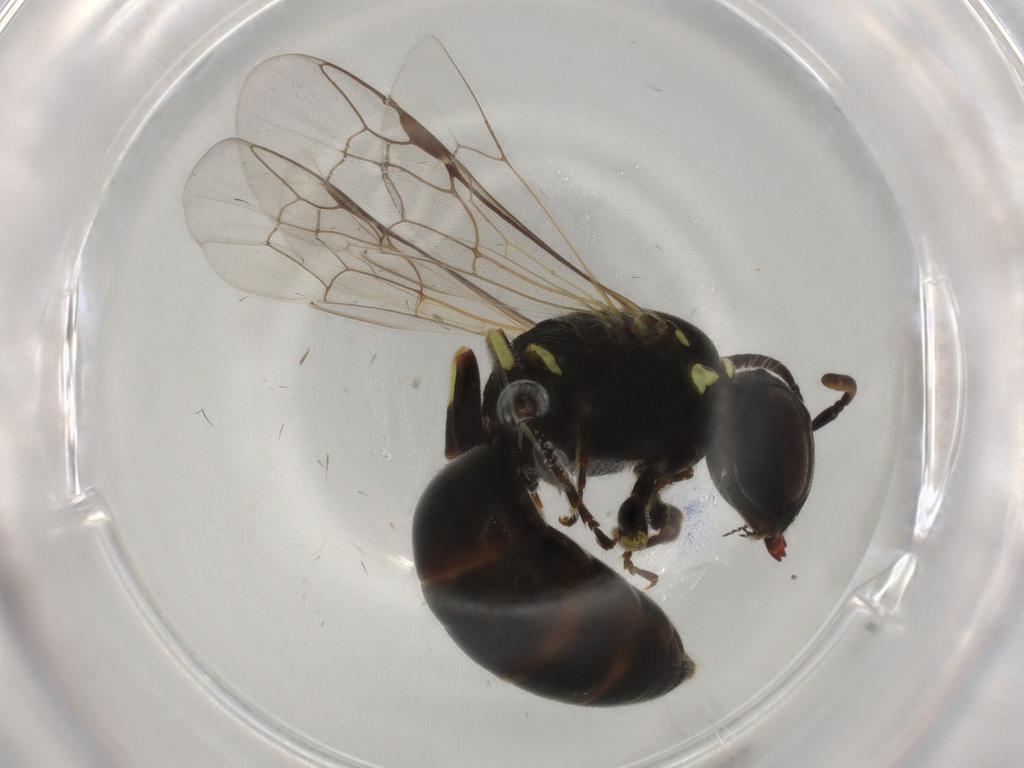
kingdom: Animalia
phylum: Arthropoda
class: Insecta
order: Hymenoptera
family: Colletidae
